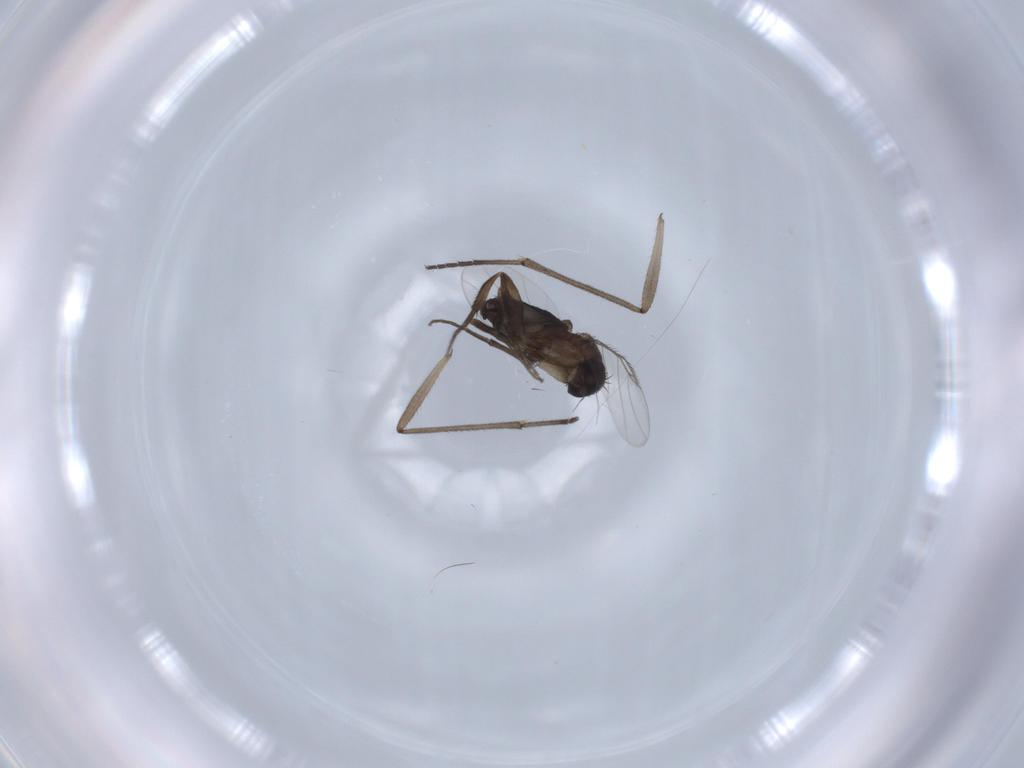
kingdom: Animalia
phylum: Arthropoda
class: Insecta
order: Diptera
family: Phoridae
